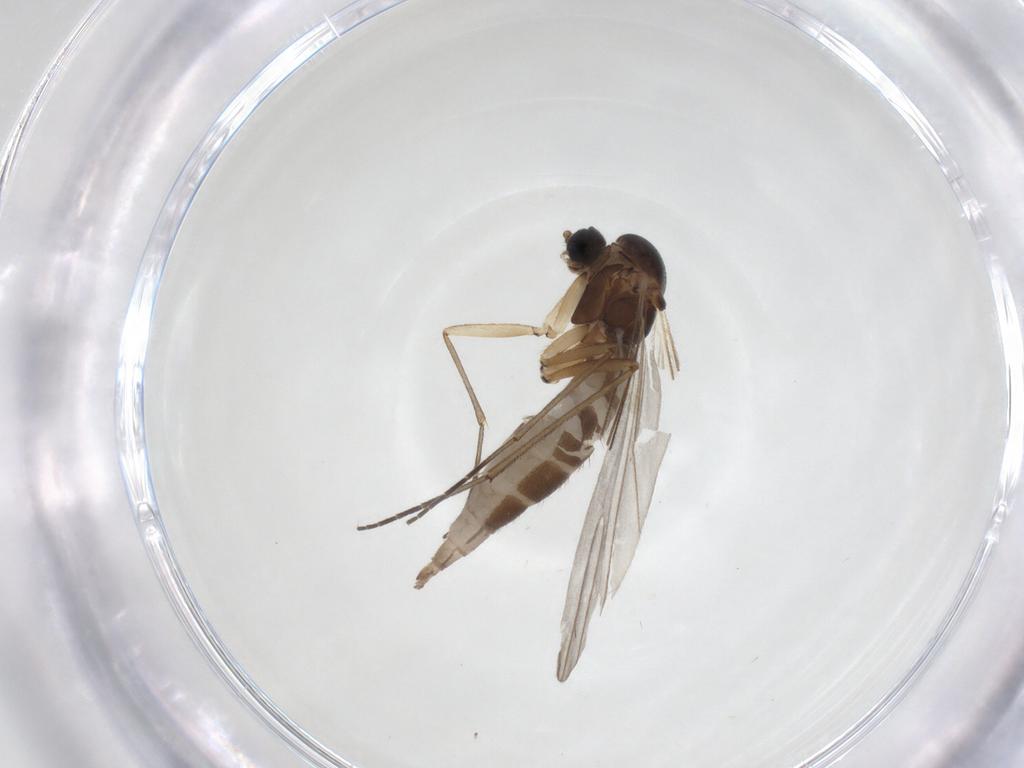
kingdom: Animalia
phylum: Arthropoda
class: Insecta
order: Diptera
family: Sciaridae
